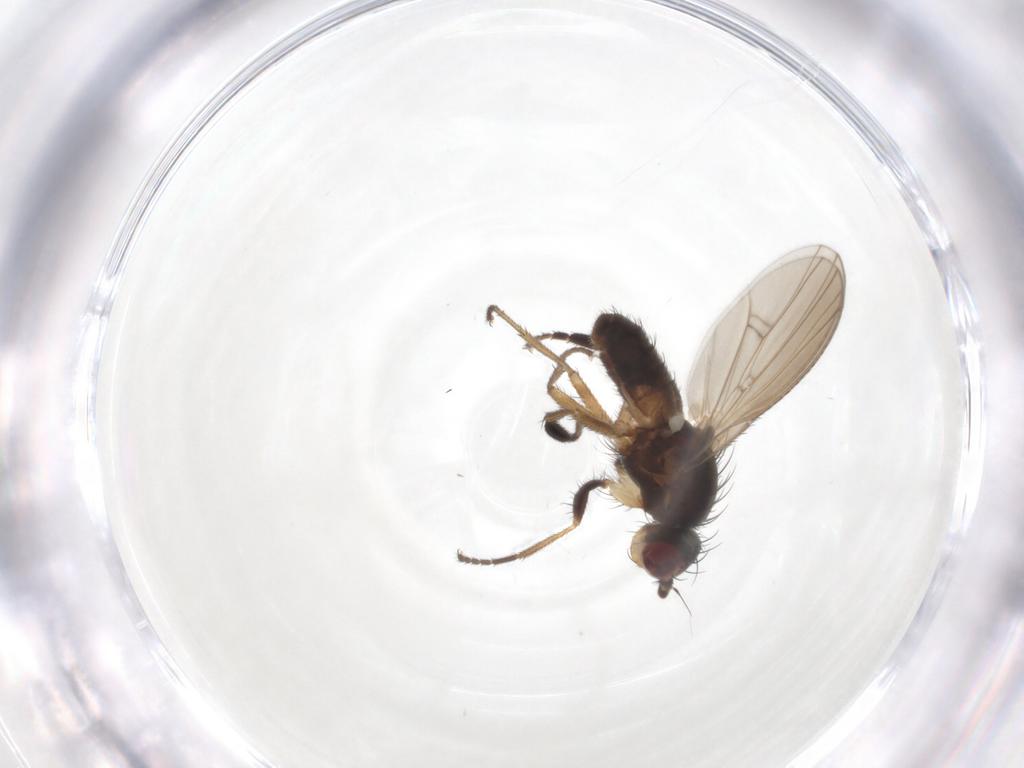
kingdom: Animalia
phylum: Arthropoda
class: Insecta
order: Diptera
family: Heleomyzidae
